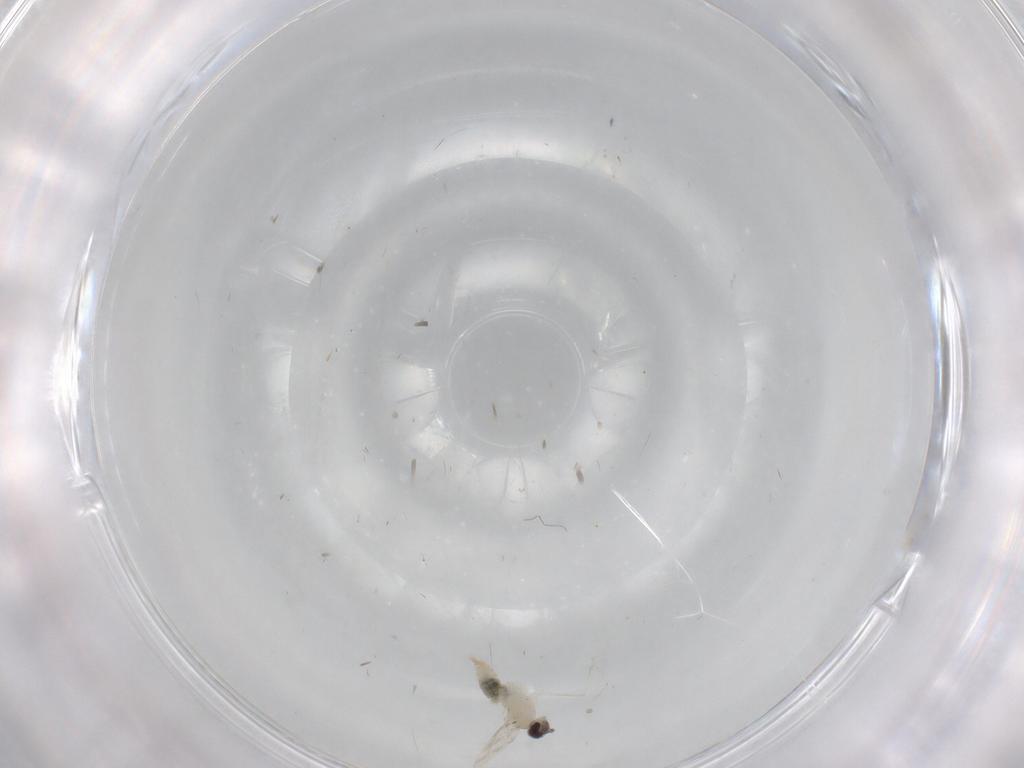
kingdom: Animalia
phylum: Arthropoda
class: Insecta
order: Diptera
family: Cecidomyiidae
